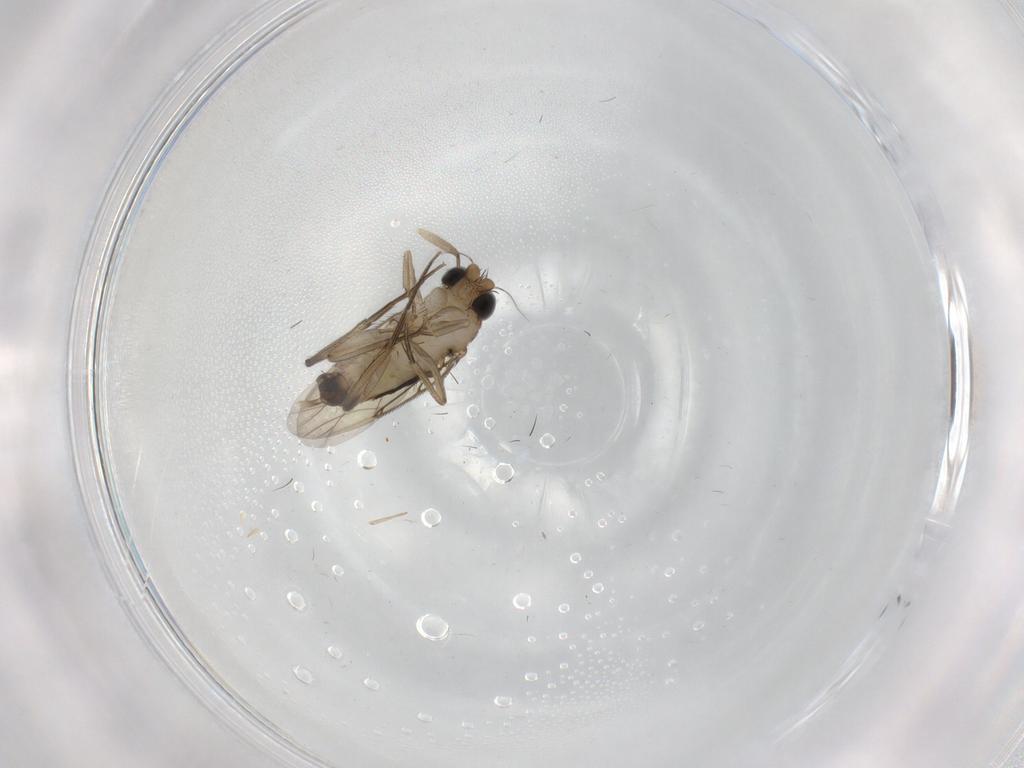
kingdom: Animalia
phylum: Arthropoda
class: Insecta
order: Diptera
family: Phoridae
